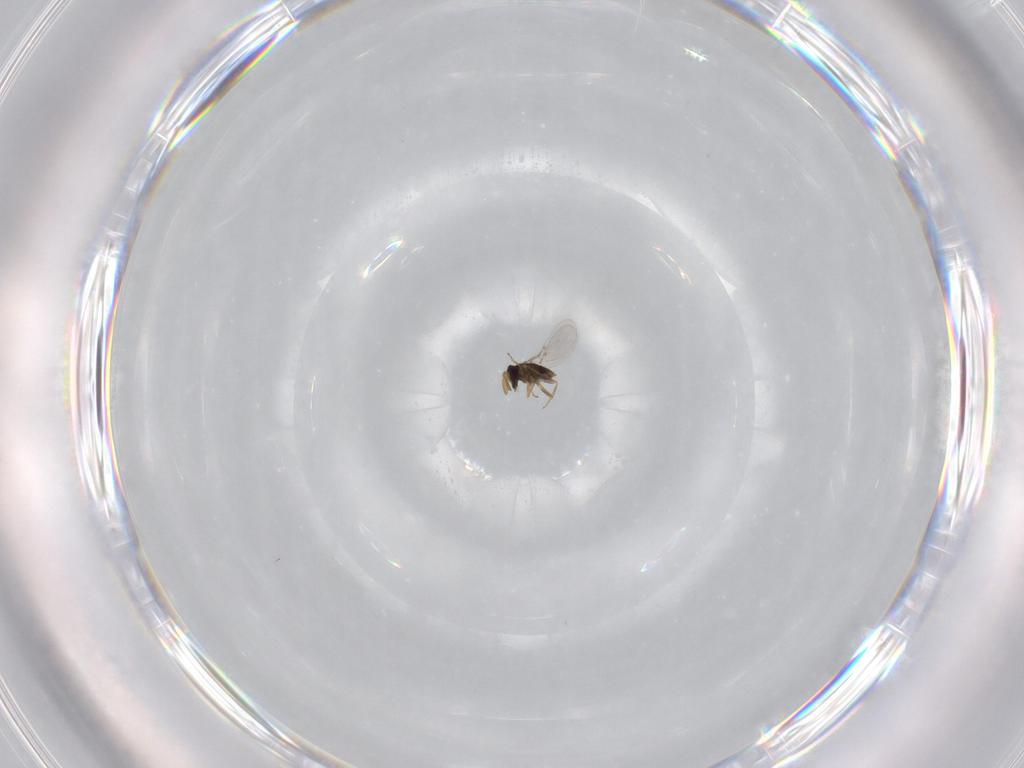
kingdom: Animalia
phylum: Arthropoda
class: Insecta
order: Hymenoptera
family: Encyrtidae
